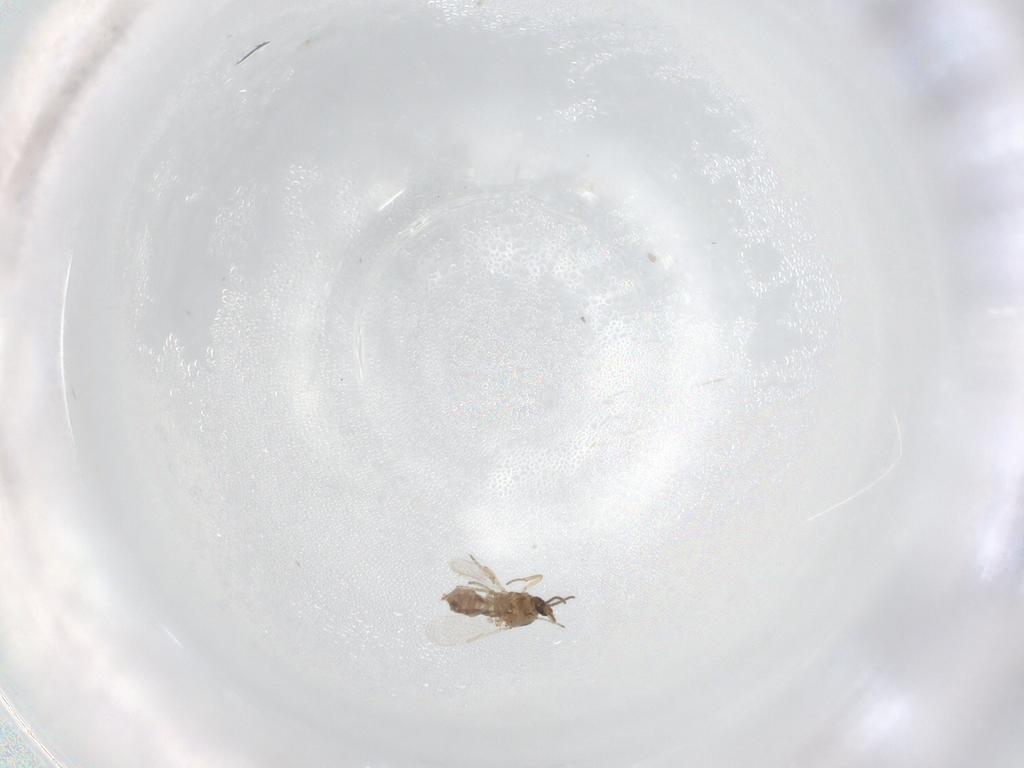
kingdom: Animalia
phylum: Arthropoda
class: Insecta
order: Diptera
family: Ceratopogonidae
